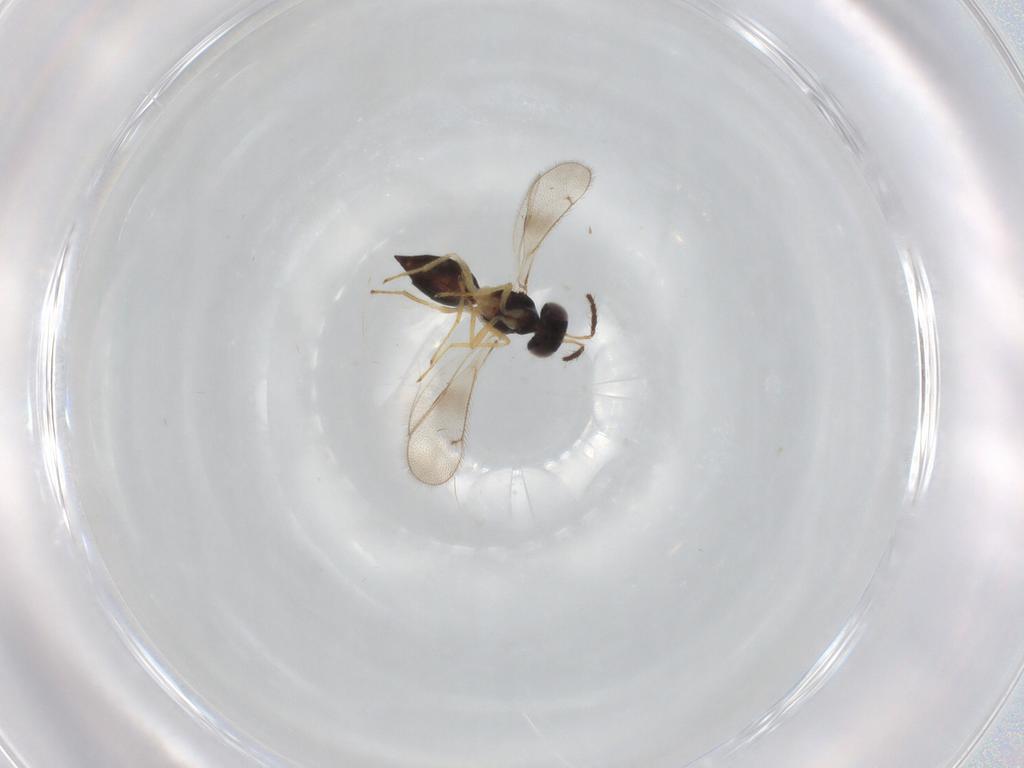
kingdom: Animalia
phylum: Arthropoda
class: Insecta
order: Hymenoptera
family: Eulophidae
